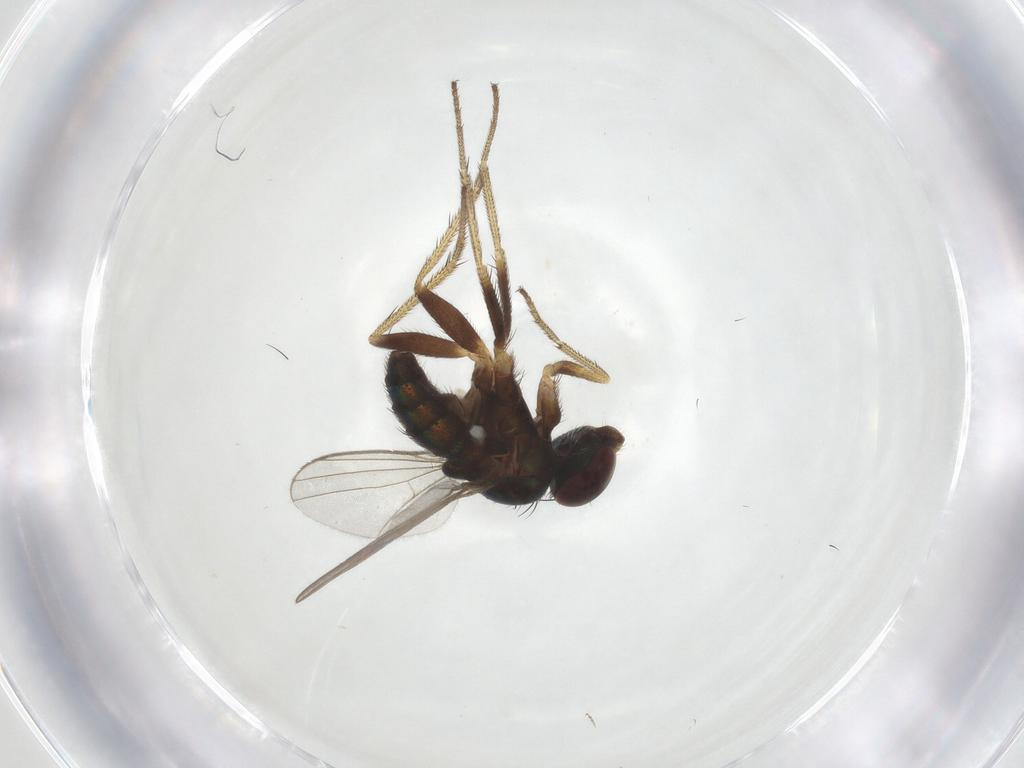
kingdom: Animalia
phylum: Arthropoda
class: Insecta
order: Diptera
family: Dolichopodidae
